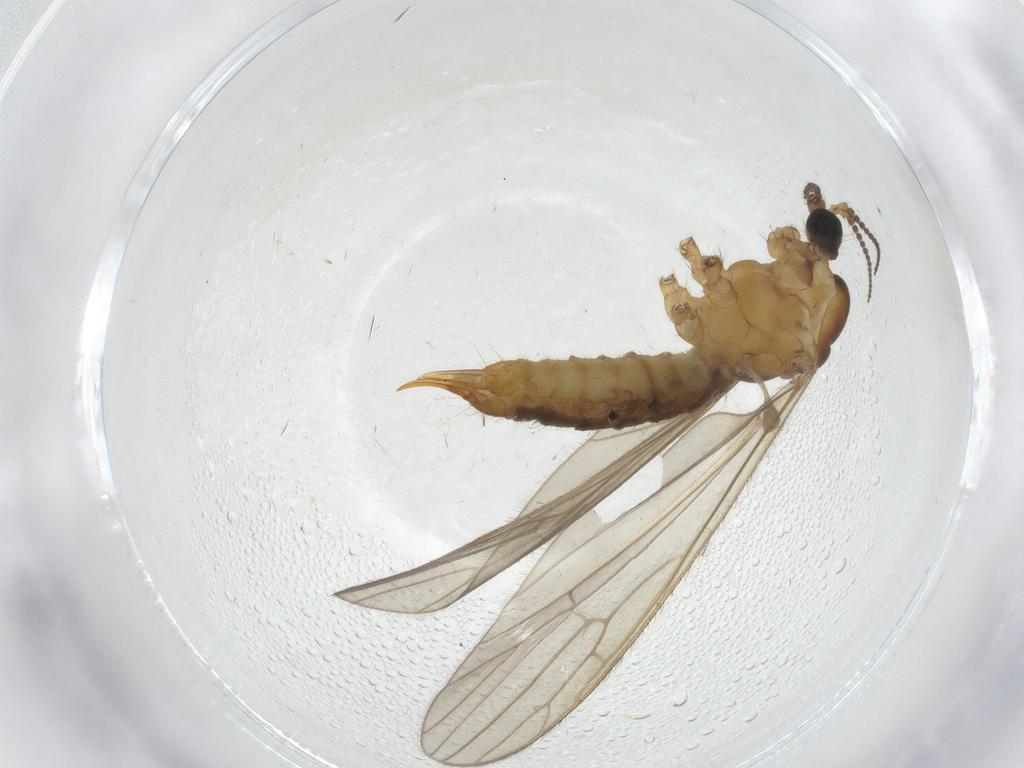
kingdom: Animalia
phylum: Arthropoda
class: Insecta
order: Diptera
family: Limoniidae
